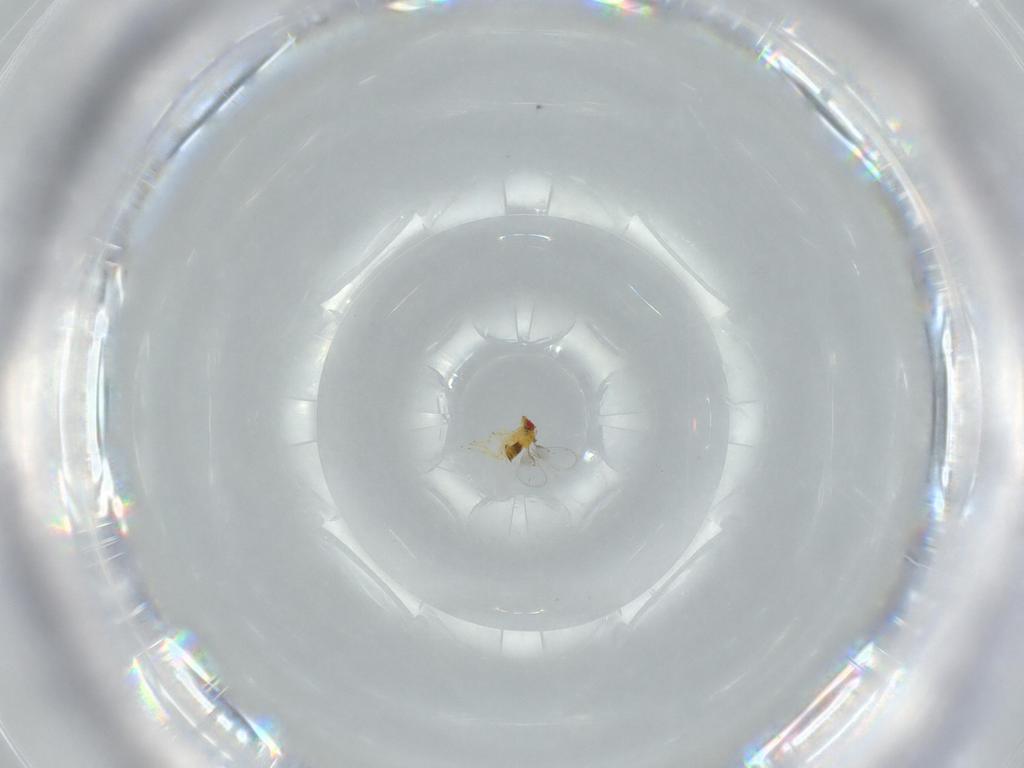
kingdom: Animalia
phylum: Arthropoda
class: Insecta
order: Hymenoptera
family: Trichogrammatidae
